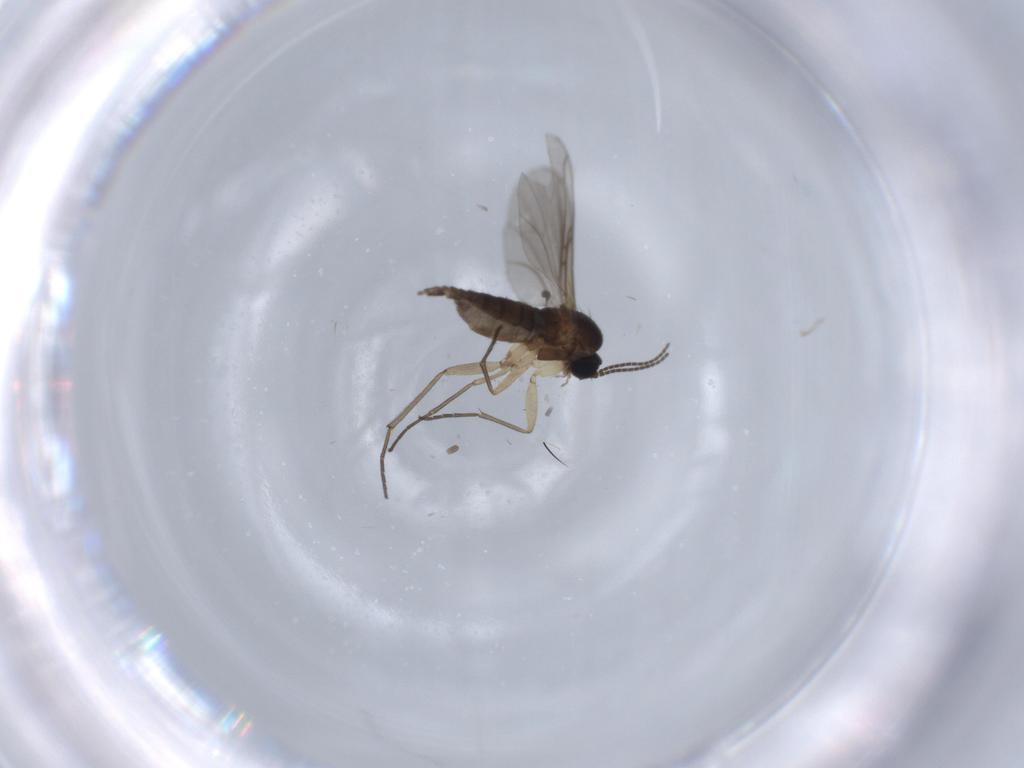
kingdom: Animalia
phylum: Arthropoda
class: Insecta
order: Diptera
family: Sciaridae
